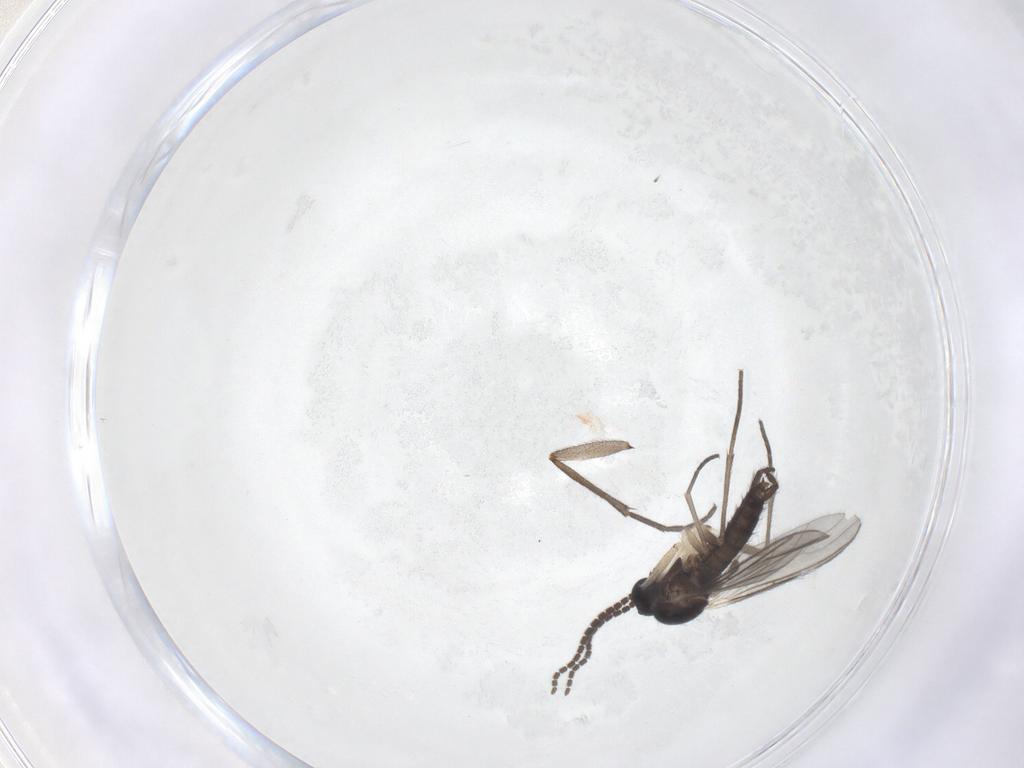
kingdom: Animalia
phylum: Arthropoda
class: Insecta
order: Diptera
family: Sciaridae
